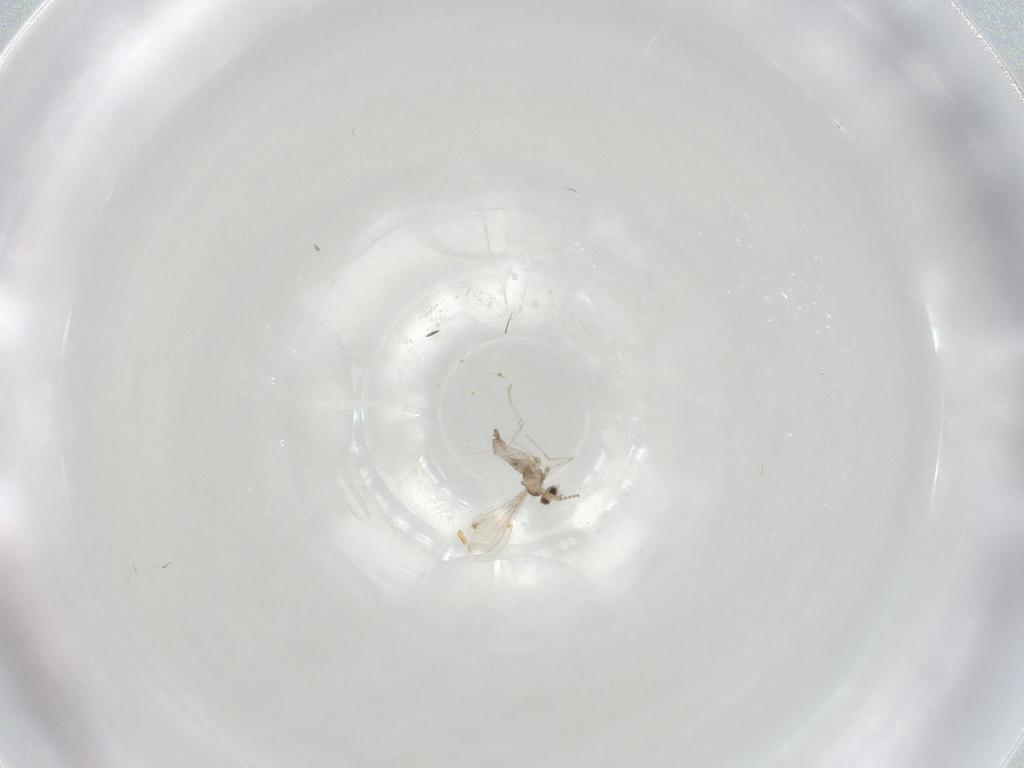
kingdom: Animalia
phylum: Arthropoda
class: Insecta
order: Diptera
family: Cecidomyiidae
